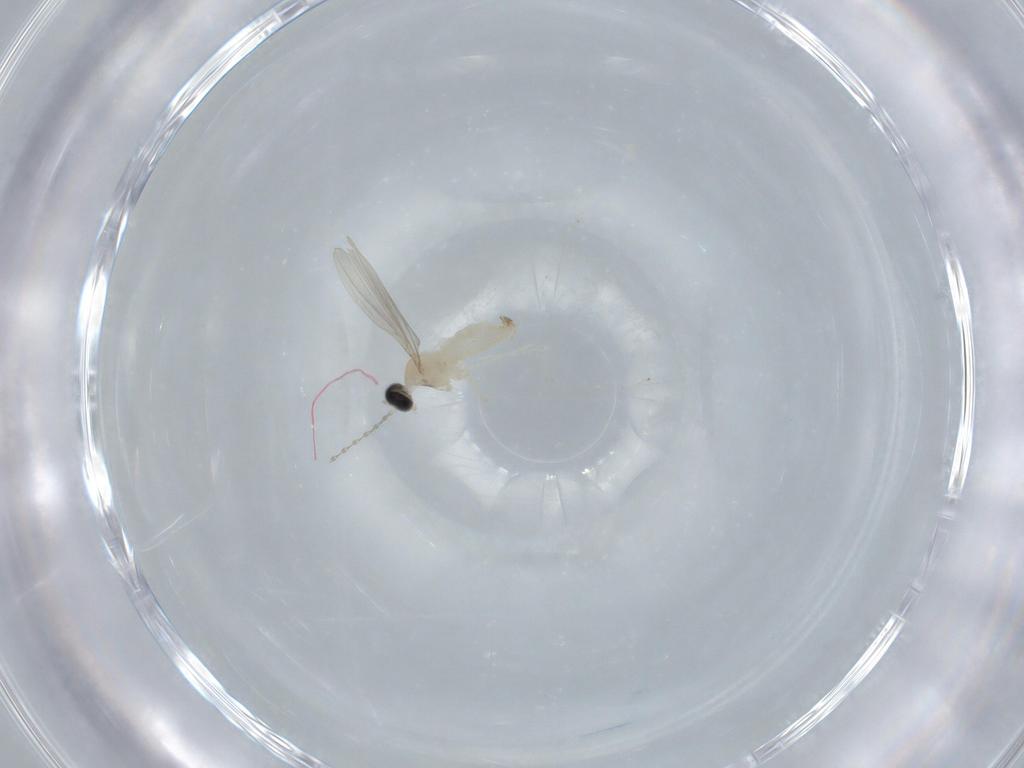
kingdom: Animalia
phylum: Arthropoda
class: Insecta
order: Diptera
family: Cecidomyiidae
